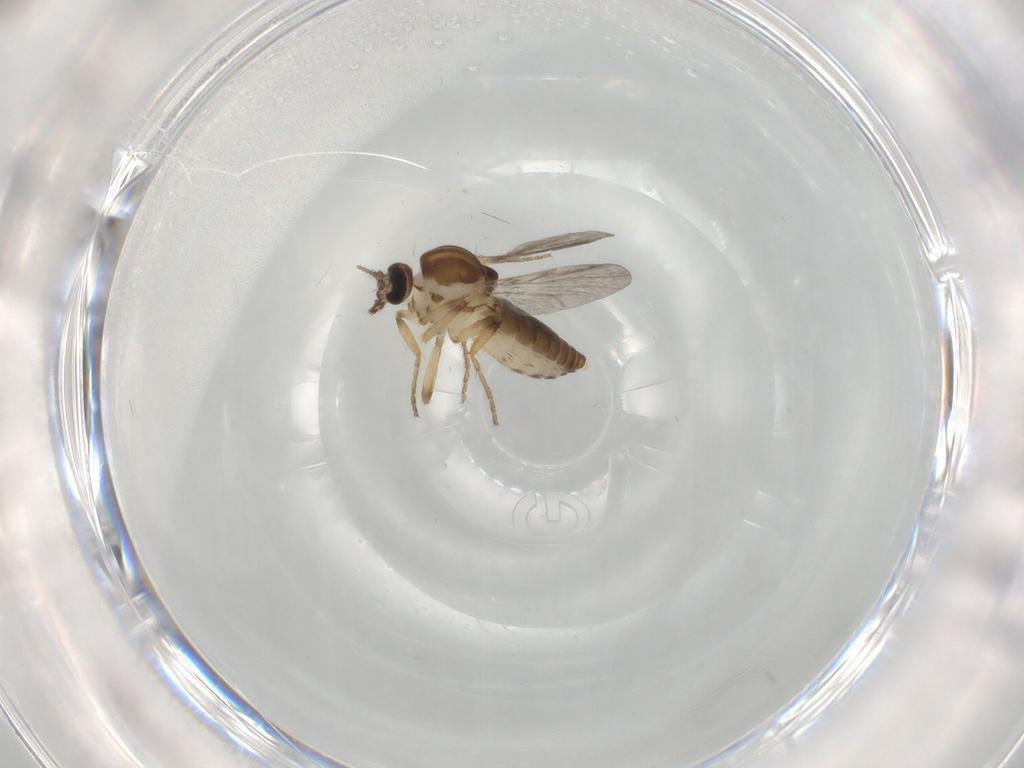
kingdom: Animalia
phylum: Arthropoda
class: Insecta
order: Diptera
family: Ceratopogonidae
